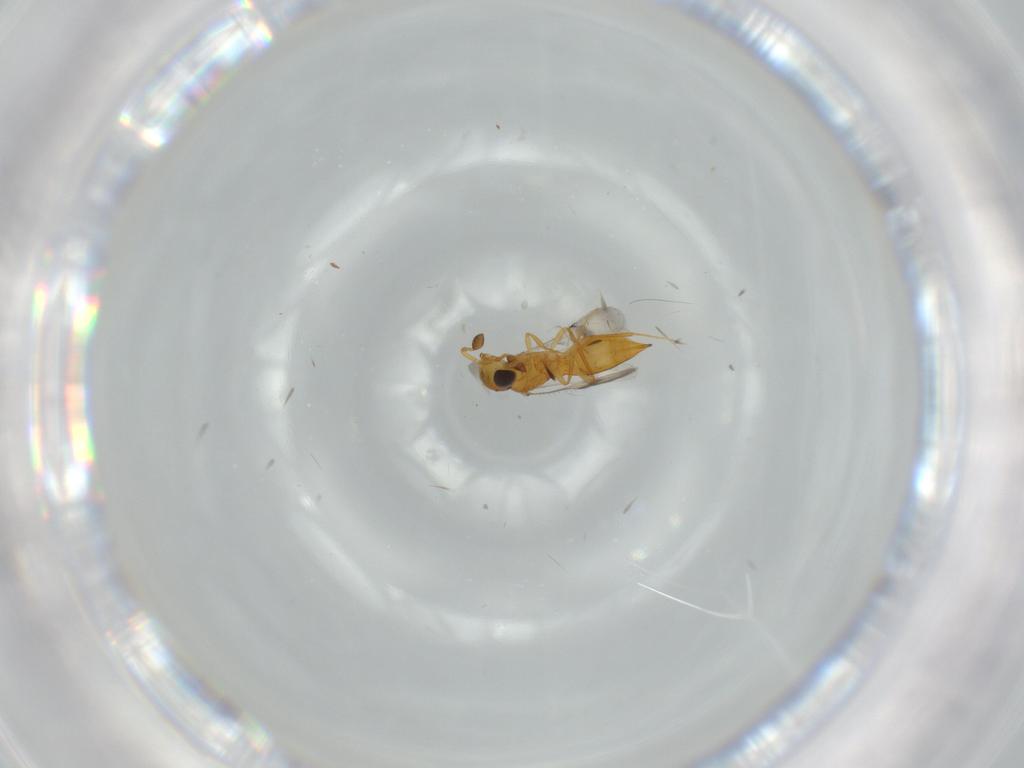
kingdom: Animalia
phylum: Arthropoda
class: Insecta
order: Hymenoptera
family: Scelionidae
